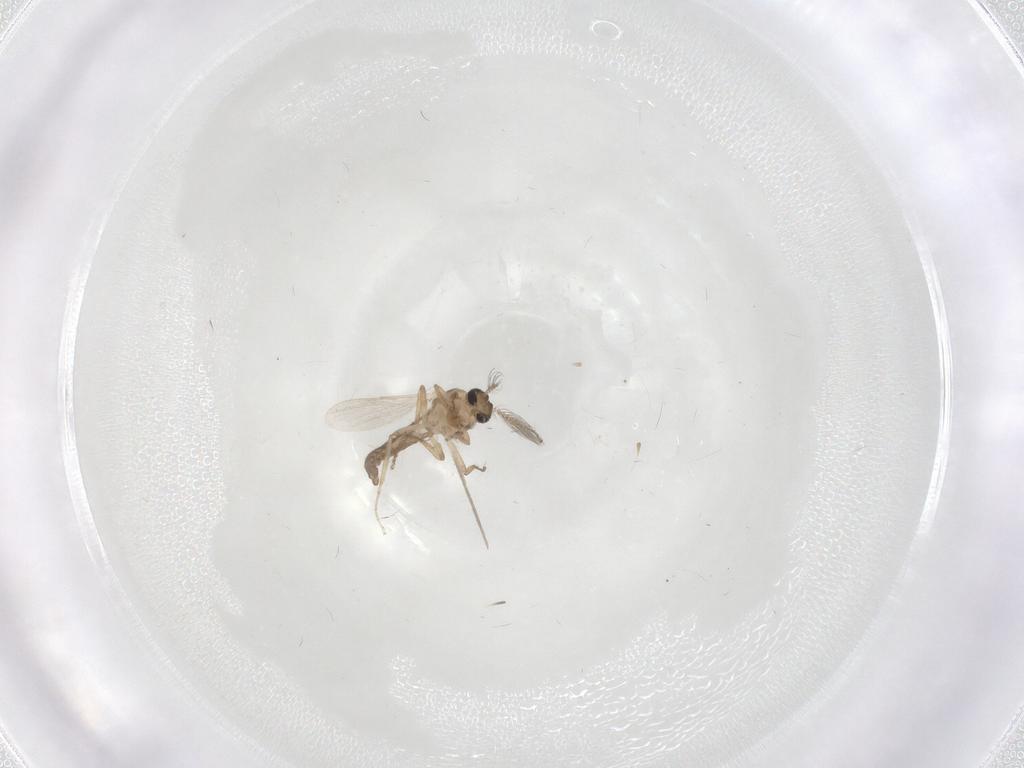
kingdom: Animalia
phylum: Arthropoda
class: Insecta
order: Diptera
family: Ceratopogonidae
